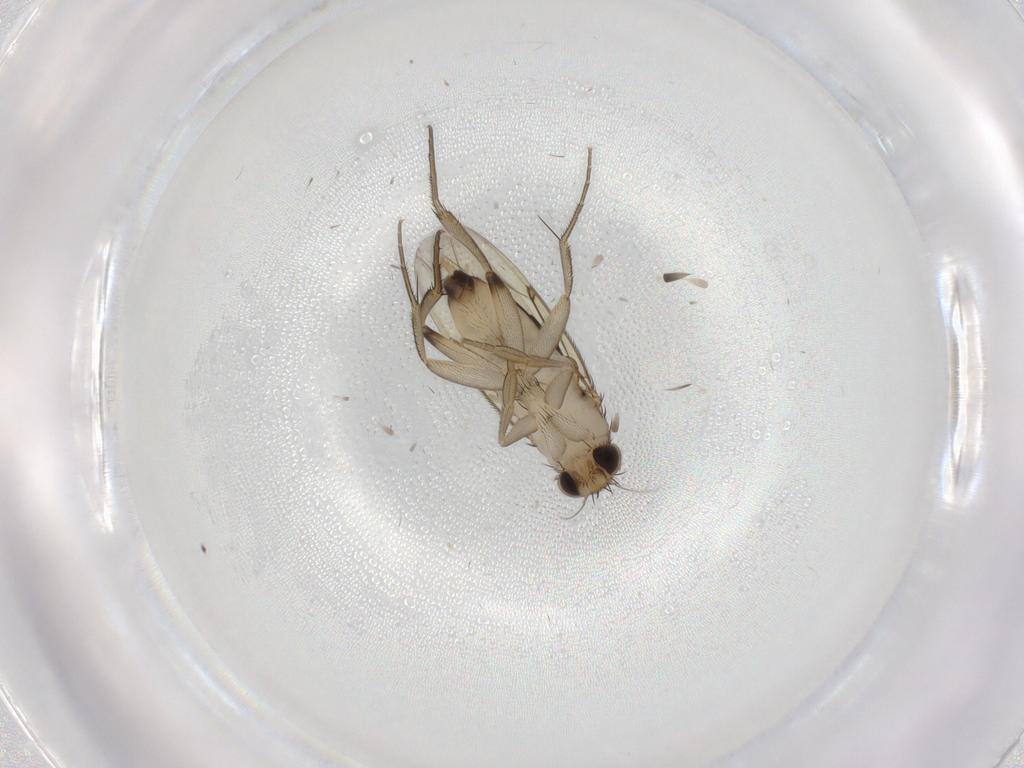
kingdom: Animalia
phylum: Arthropoda
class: Insecta
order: Diptera
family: Phoridae
